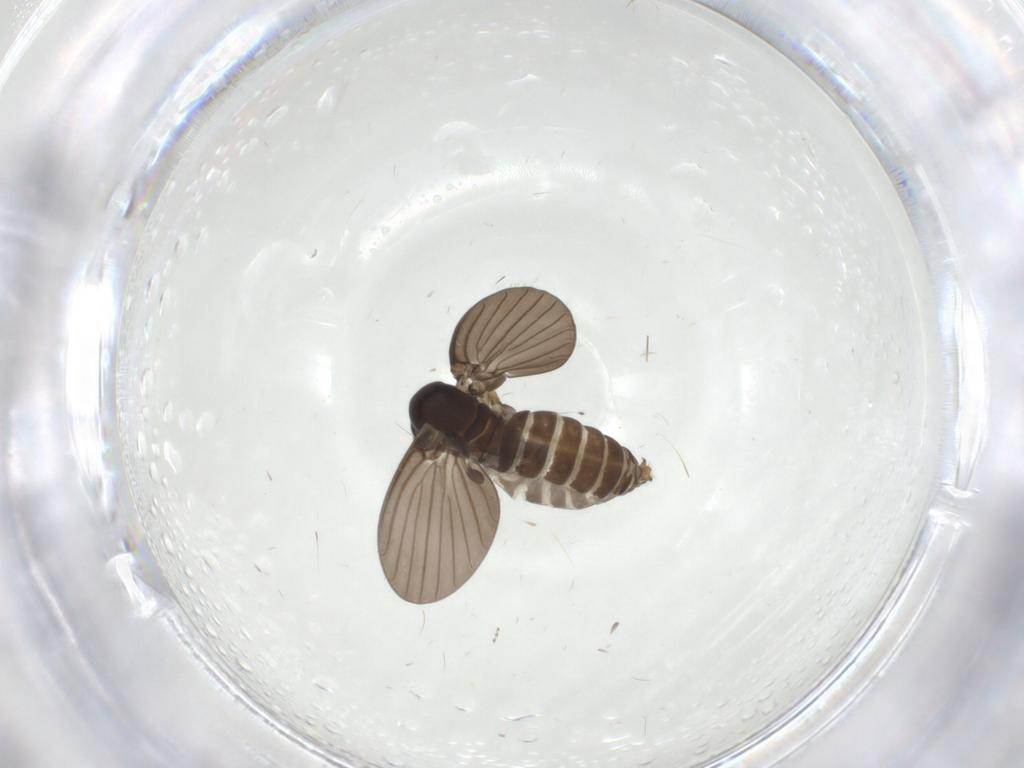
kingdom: Animalia
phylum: Arthropoda
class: Insecta
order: Diptera
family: Psychodidae
